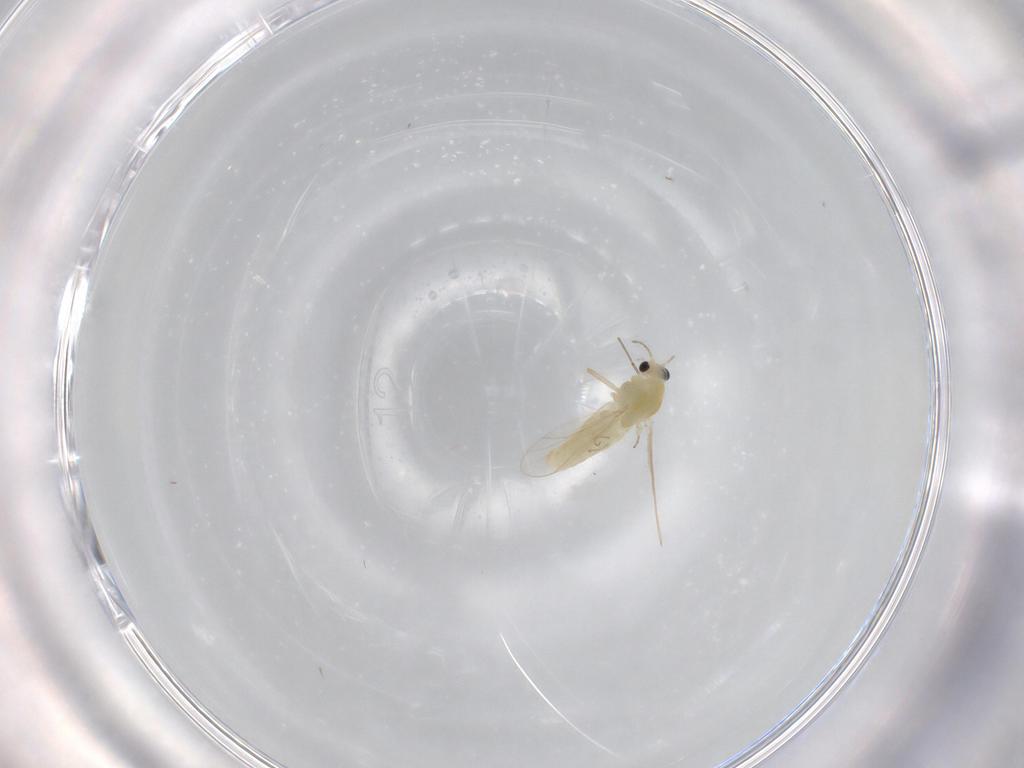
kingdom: Animalia
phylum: Arthropoda
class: Insecta
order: Diptera
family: Chironomidae
